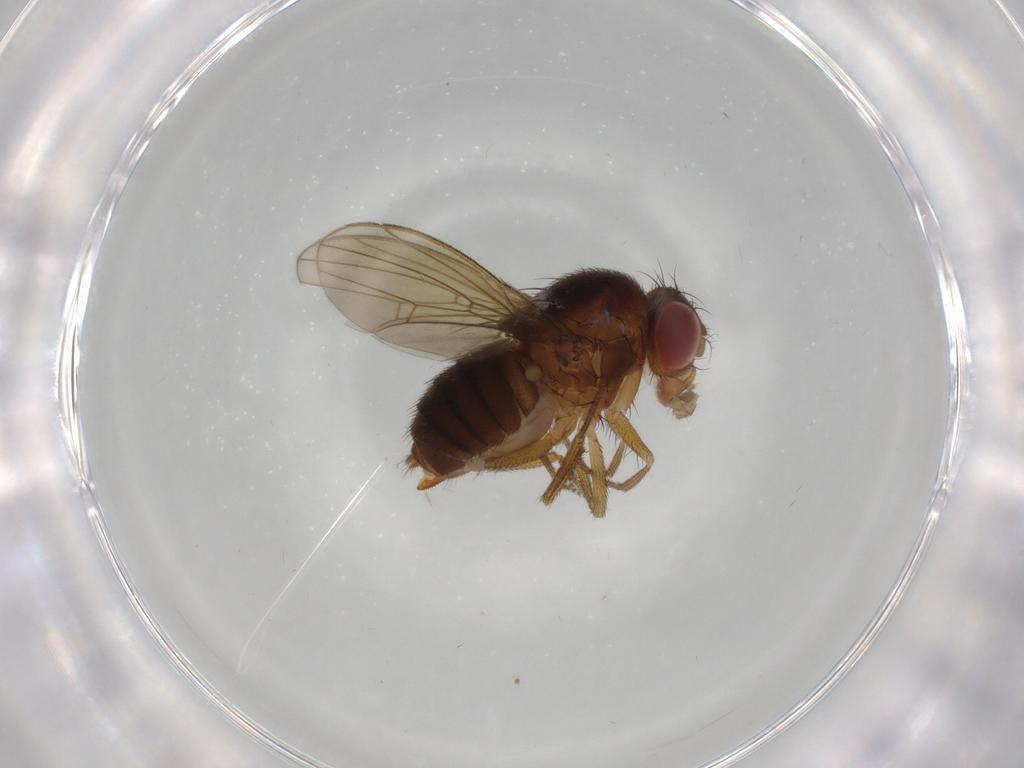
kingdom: Animalia
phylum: Arthropoda
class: Insecta
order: Diptera
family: Drosophilidae
